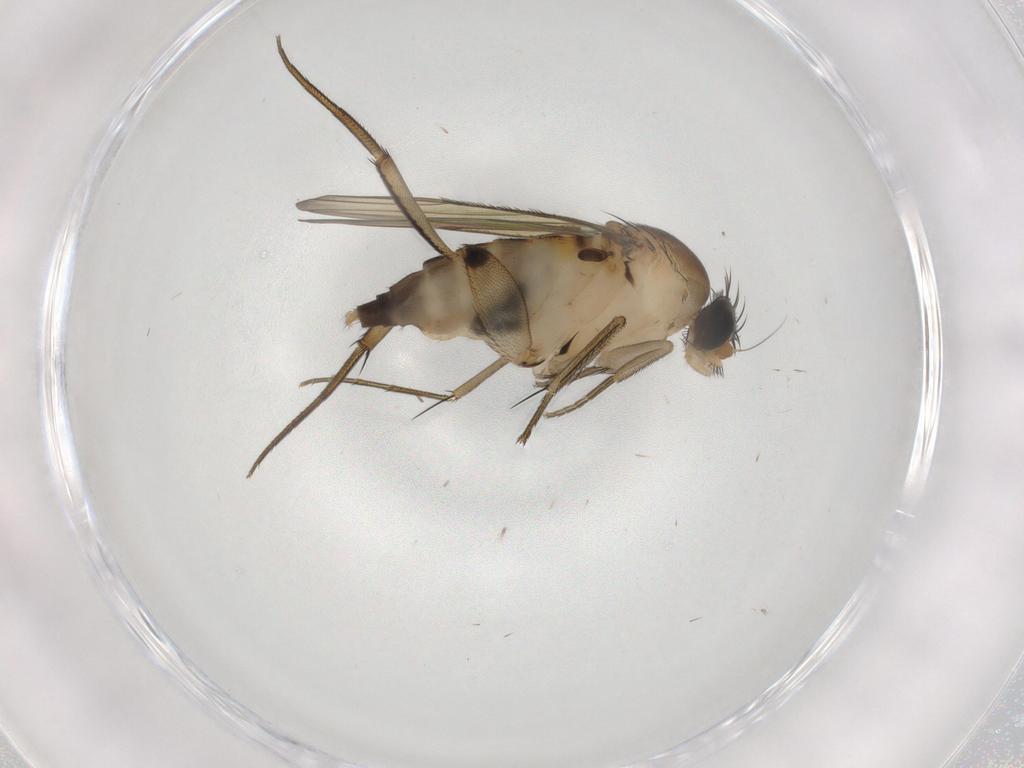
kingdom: Animalia
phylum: Arthropoda
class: Insecta
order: Diptera
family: Phoridae
